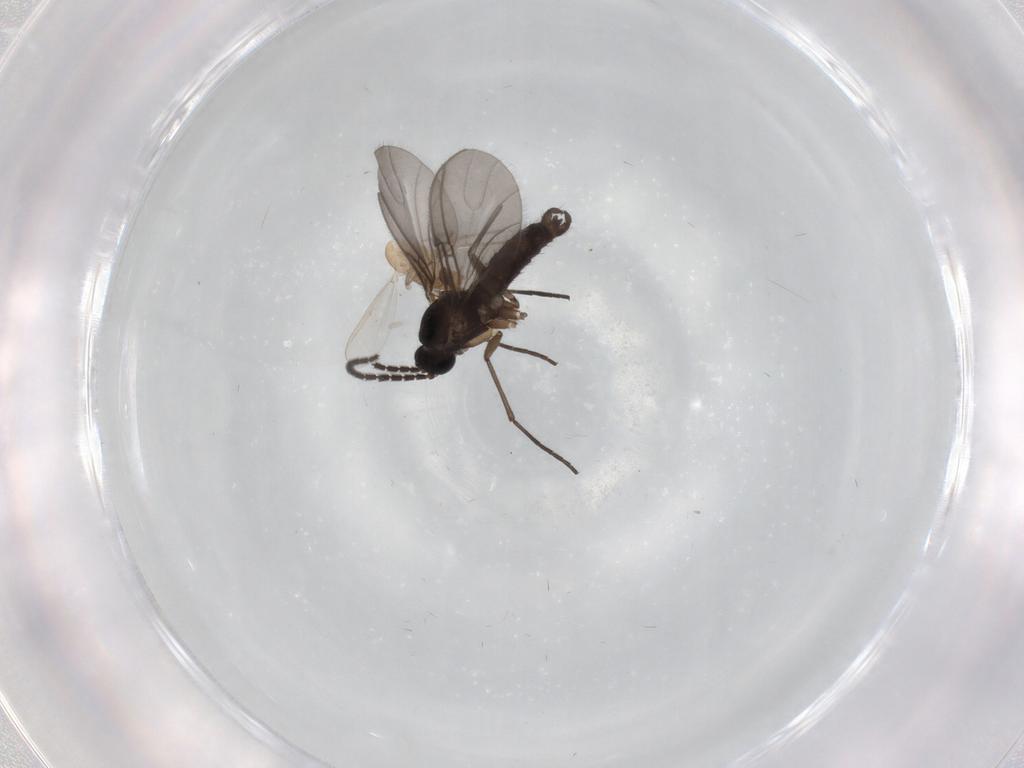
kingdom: Animalia
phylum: Arthropoda
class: Insecta
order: Diptera
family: Sciaridae
